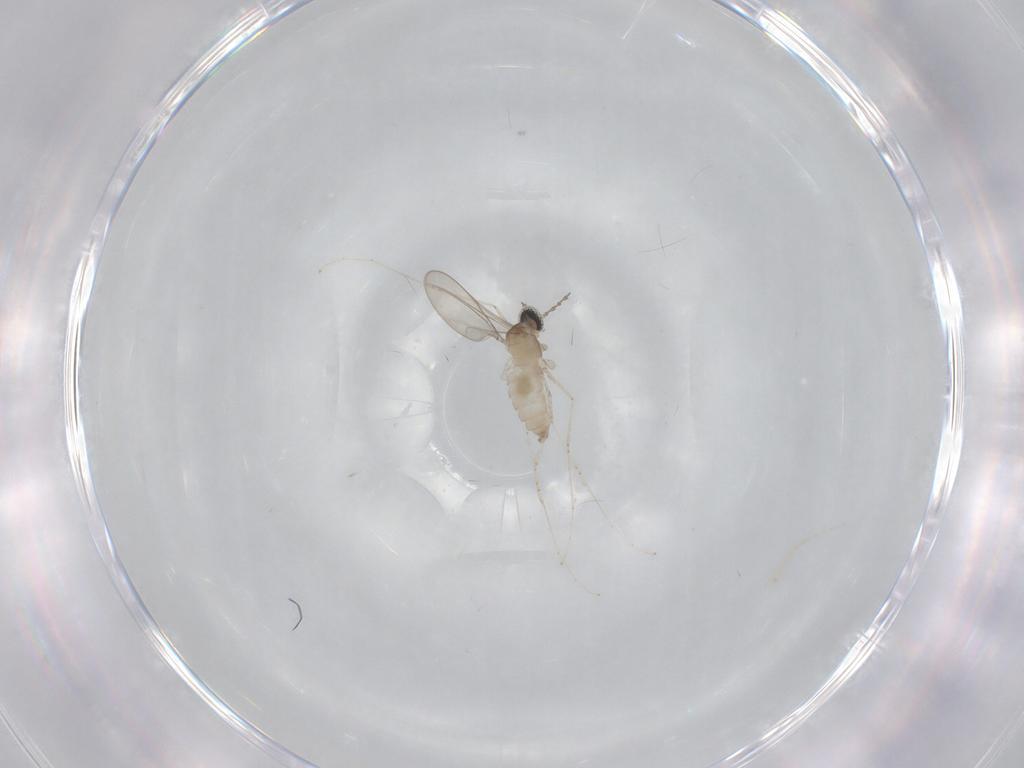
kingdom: Animalia
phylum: Arthropoda
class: Insecta
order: Diptera
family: Cecidomyiidae
